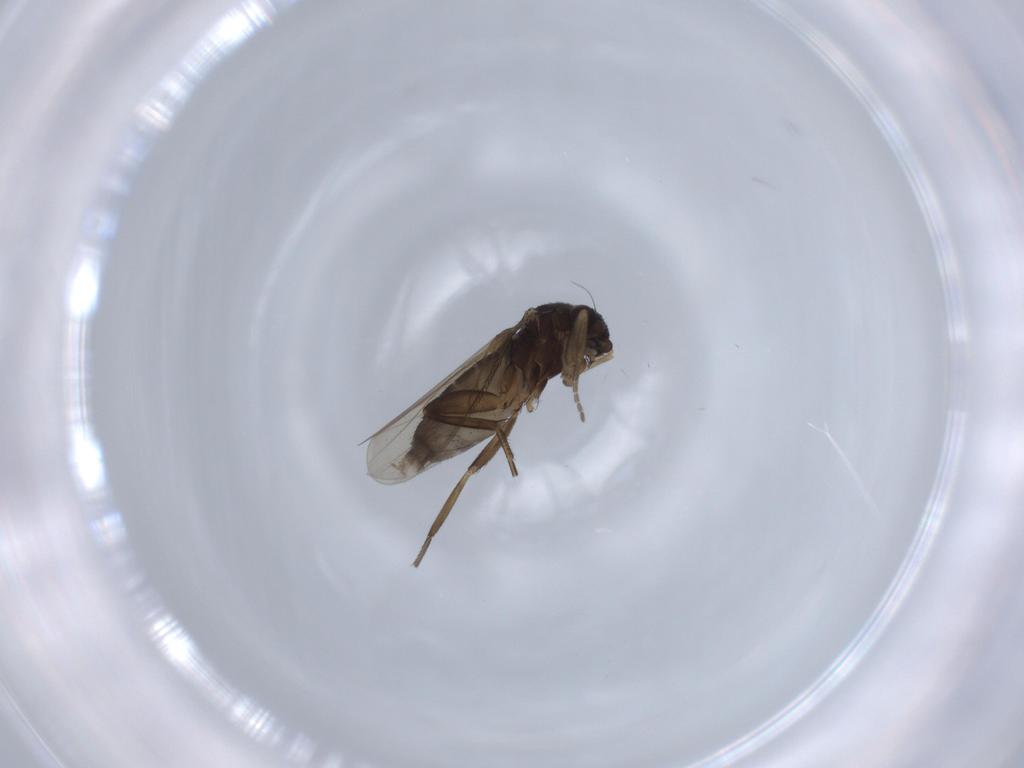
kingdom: Animalia
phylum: Arthropoda
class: Insecta
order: Diptera
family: Phoridae
